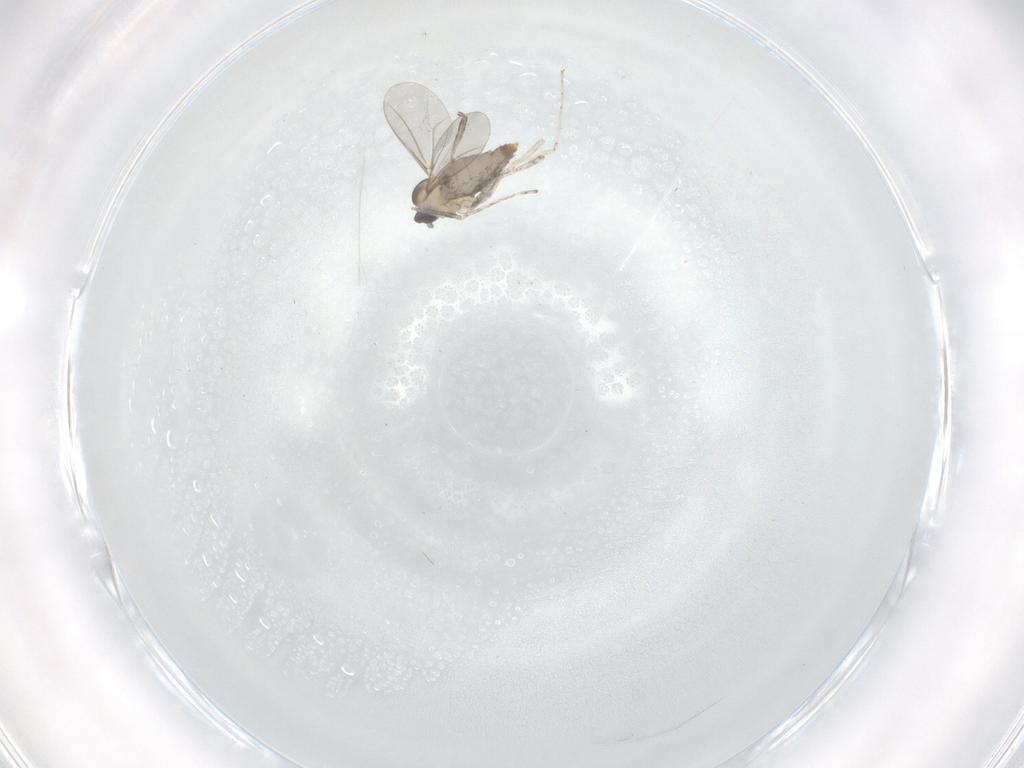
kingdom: Animalia
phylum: Arthropoda
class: Insecta
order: Diptera
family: Cecidomyiidae
